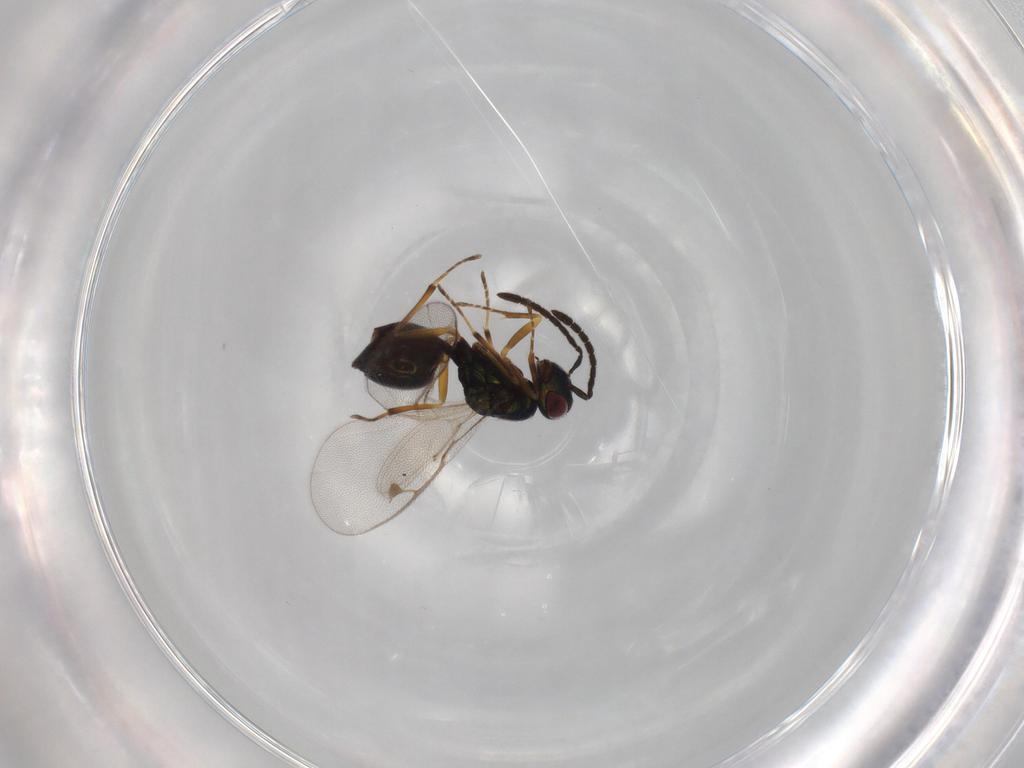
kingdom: Animalia
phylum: Arthropoda
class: Insecta
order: Hymenoptera
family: Pteromalidae
